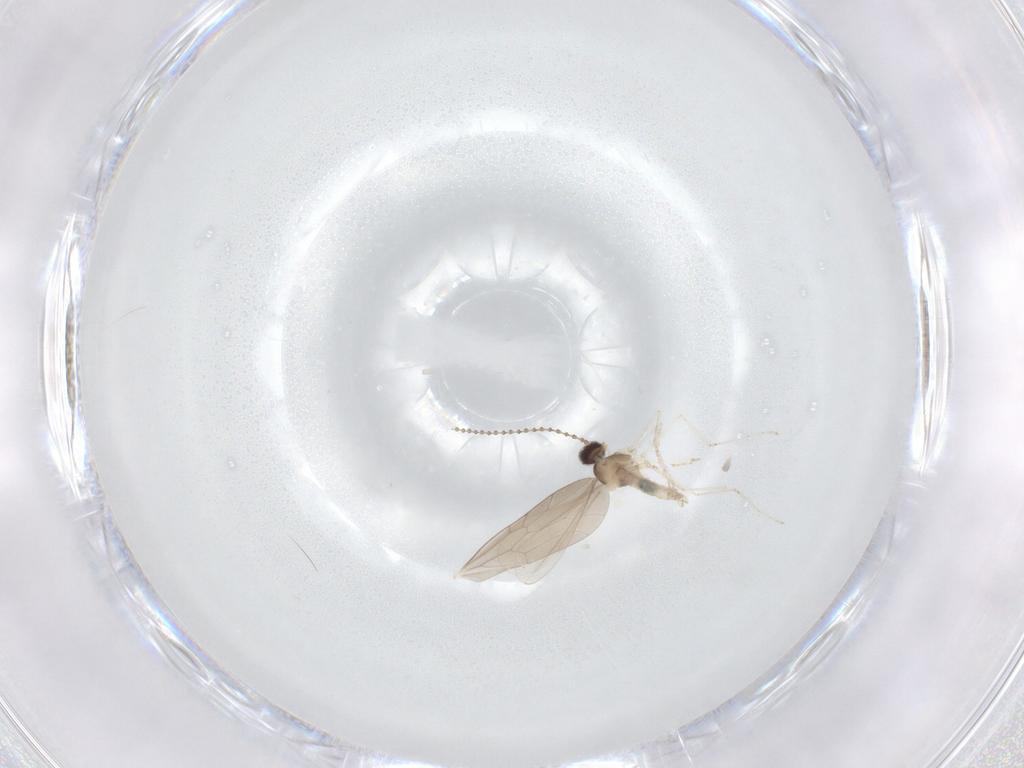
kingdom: Animalia
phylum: Arthropoda
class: Insecta
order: Diptera
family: Cecidomyiidae
